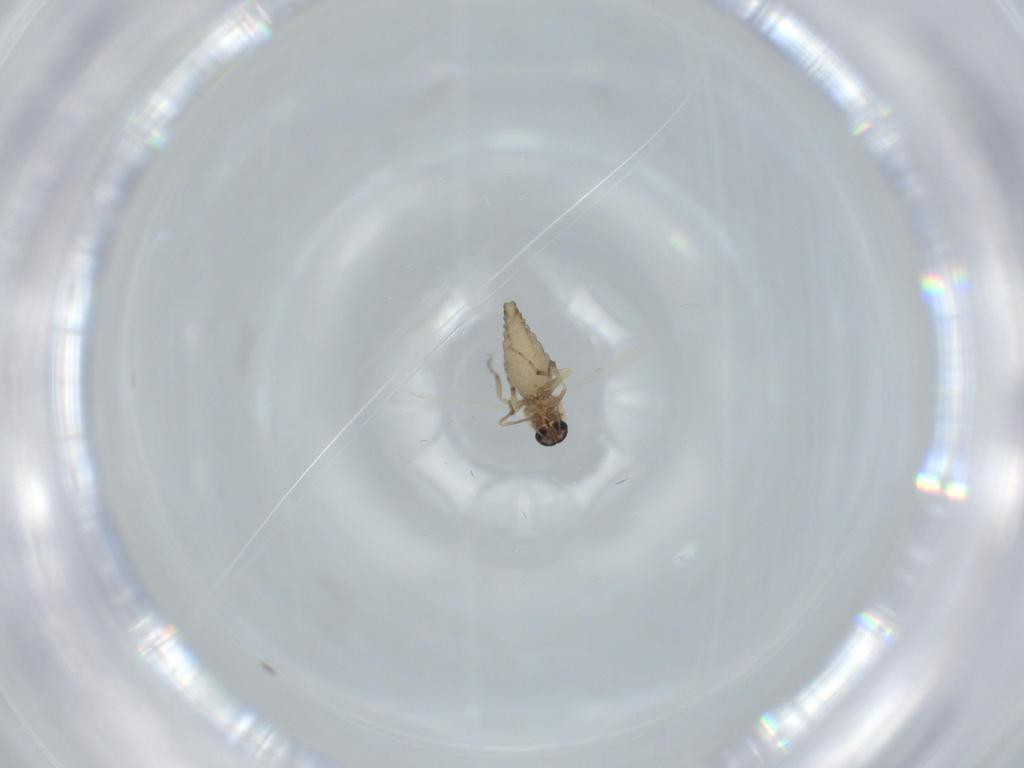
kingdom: Animalia
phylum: Arthropoda
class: Insecta
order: Diptera
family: Ceratopogonidae
